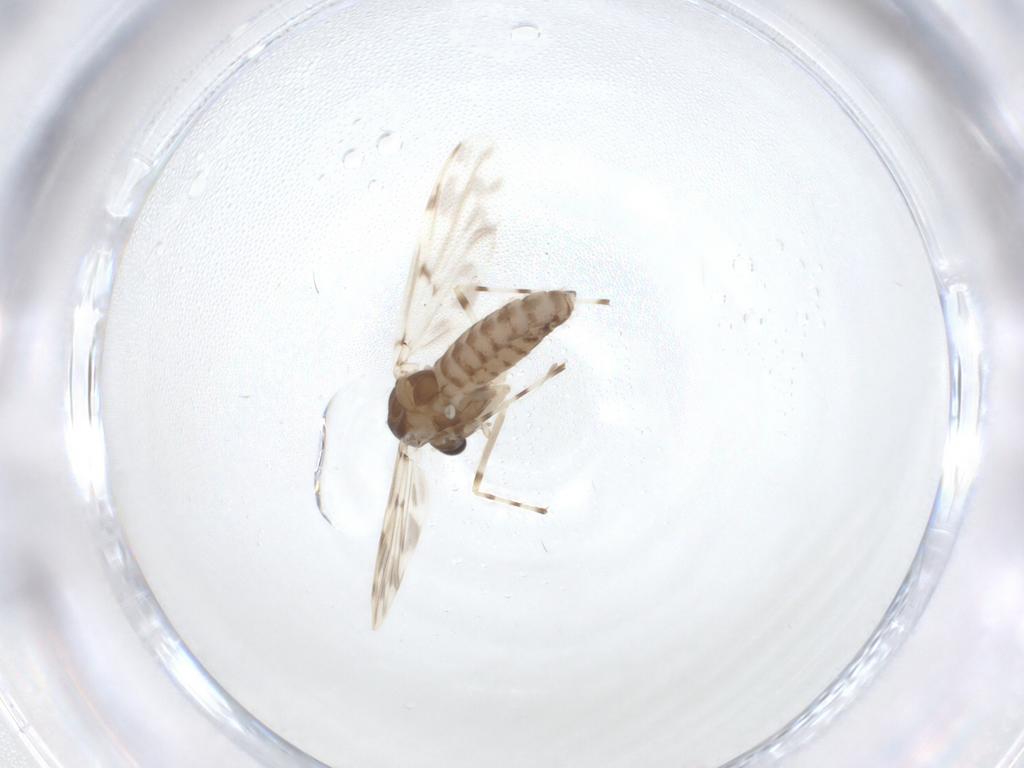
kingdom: Animalia
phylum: Arthropoda
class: Insecta
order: Diptera
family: Chironomidae
